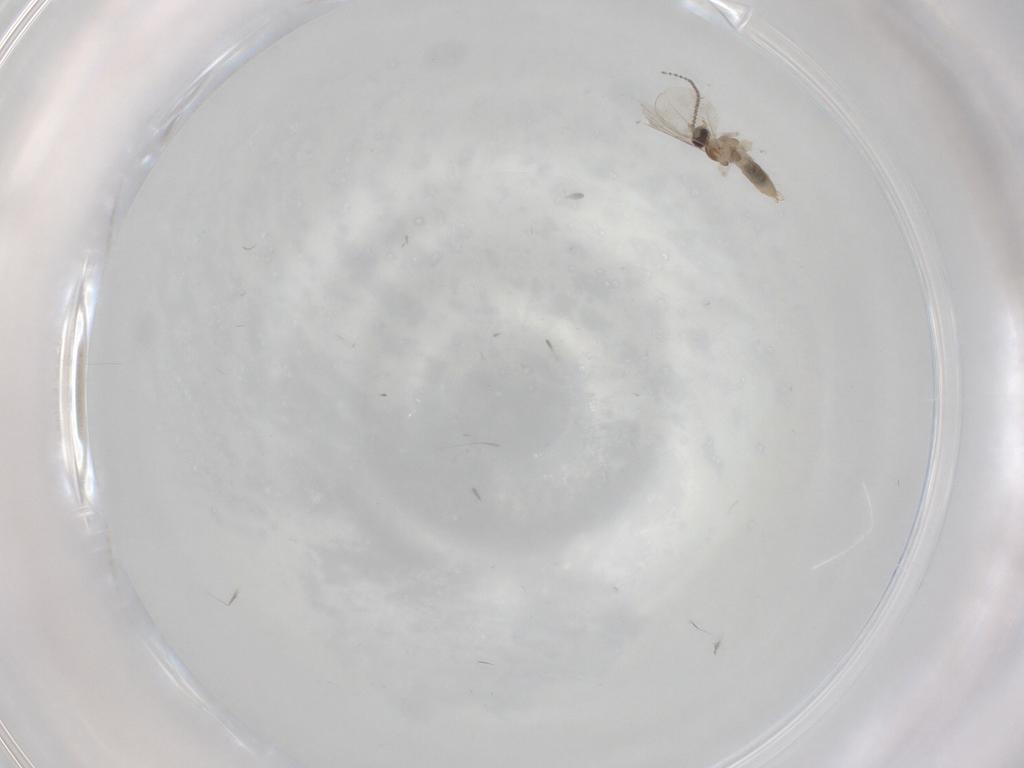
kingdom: Animalia
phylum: Arthropoda
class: Insecta
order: Diptera
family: Cecidomyiidae
